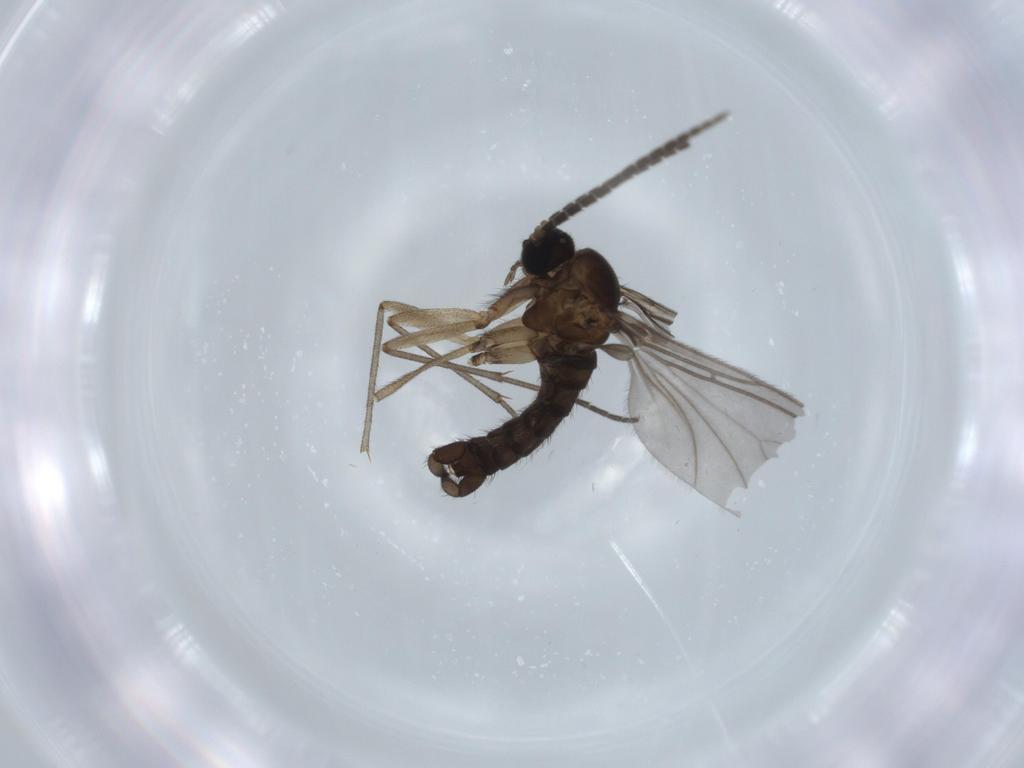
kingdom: Animalia
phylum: Arthropoda
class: Insecta
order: Diptera
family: Sciaridae
